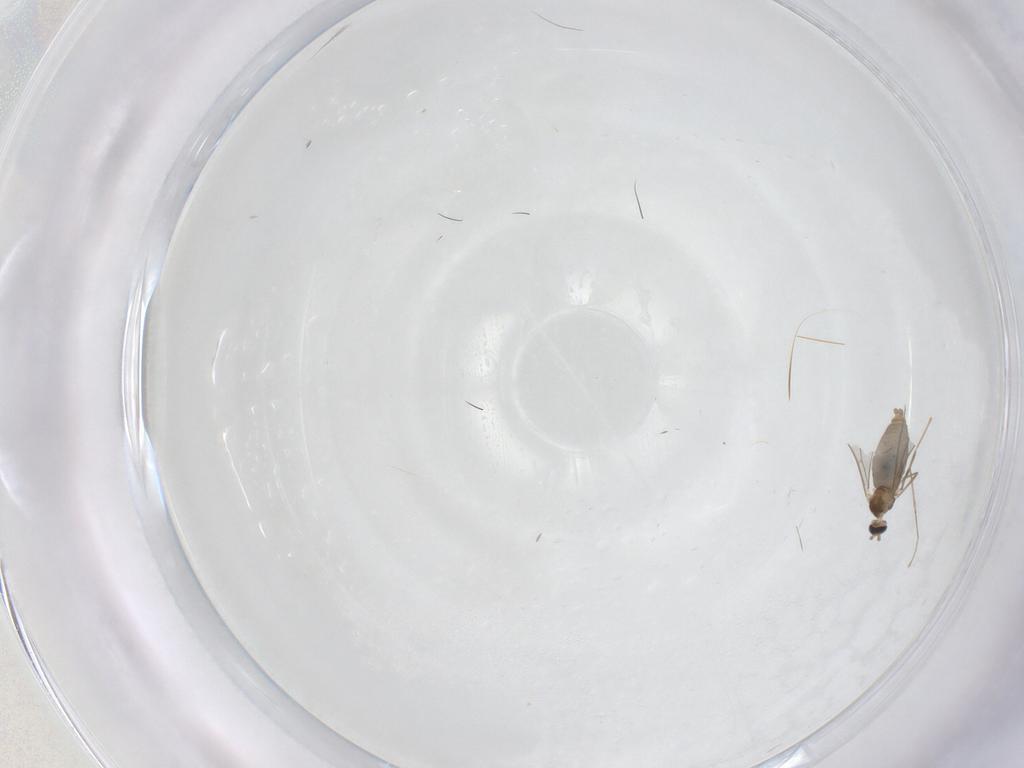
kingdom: Animalia
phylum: Arthropoda
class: Insecta
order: Diptera
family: Cecidomyiidae
